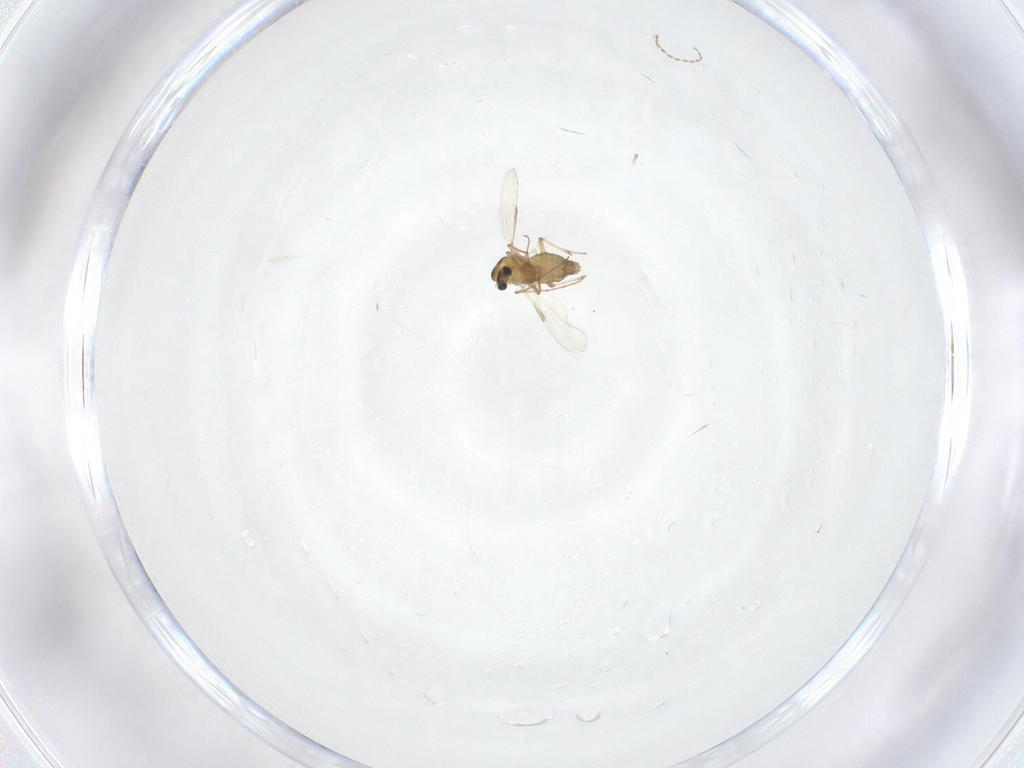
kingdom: Animalia
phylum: Arthropoda
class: Insecta
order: Diptera
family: Chironomidae
